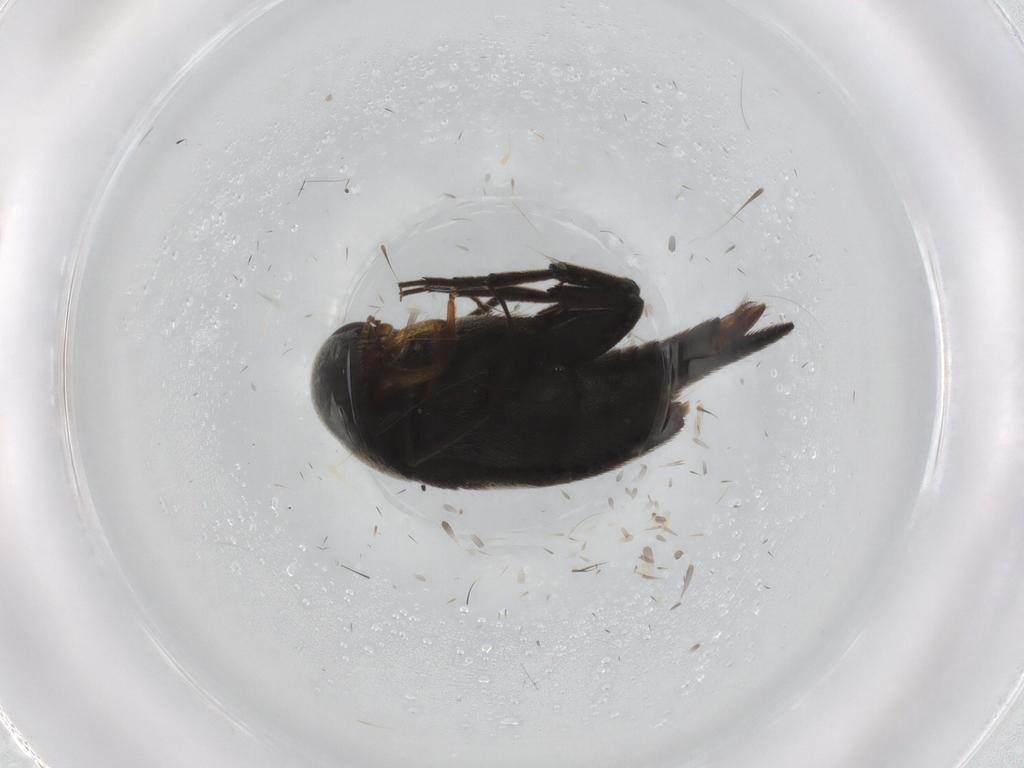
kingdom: Animalia
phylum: Arthropoda
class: Insecta
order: Coleoptera
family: Mordellidae
